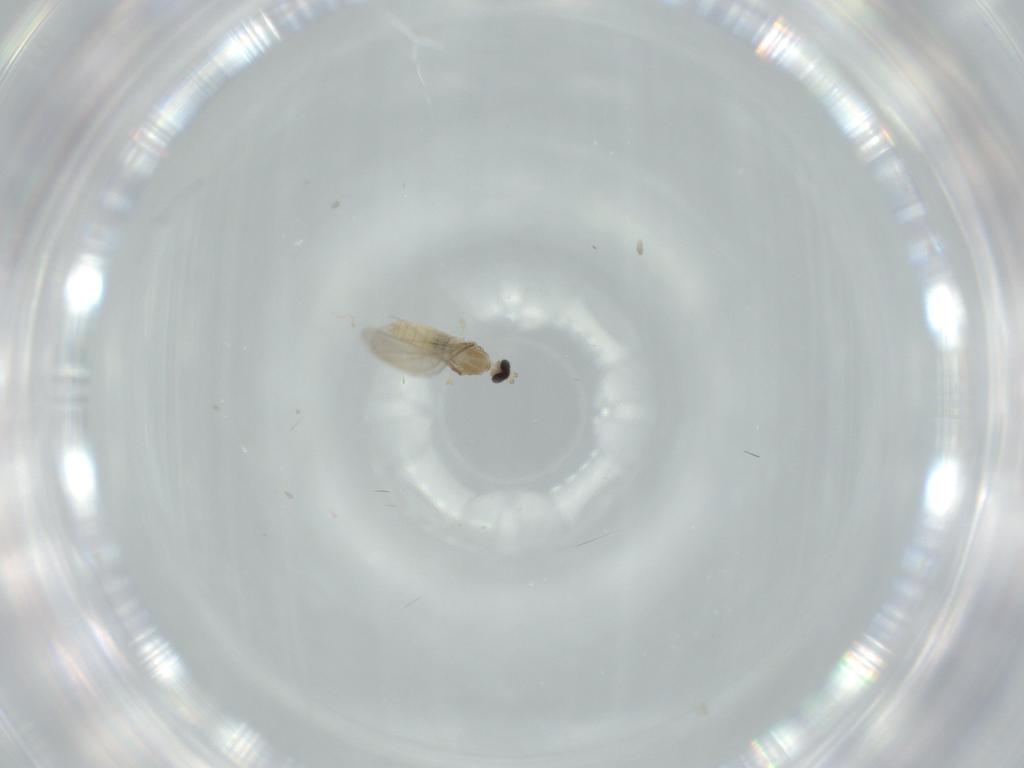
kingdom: Animalia
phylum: Arthropoda
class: Insecta
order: Diptera
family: Cecidomyiidae
